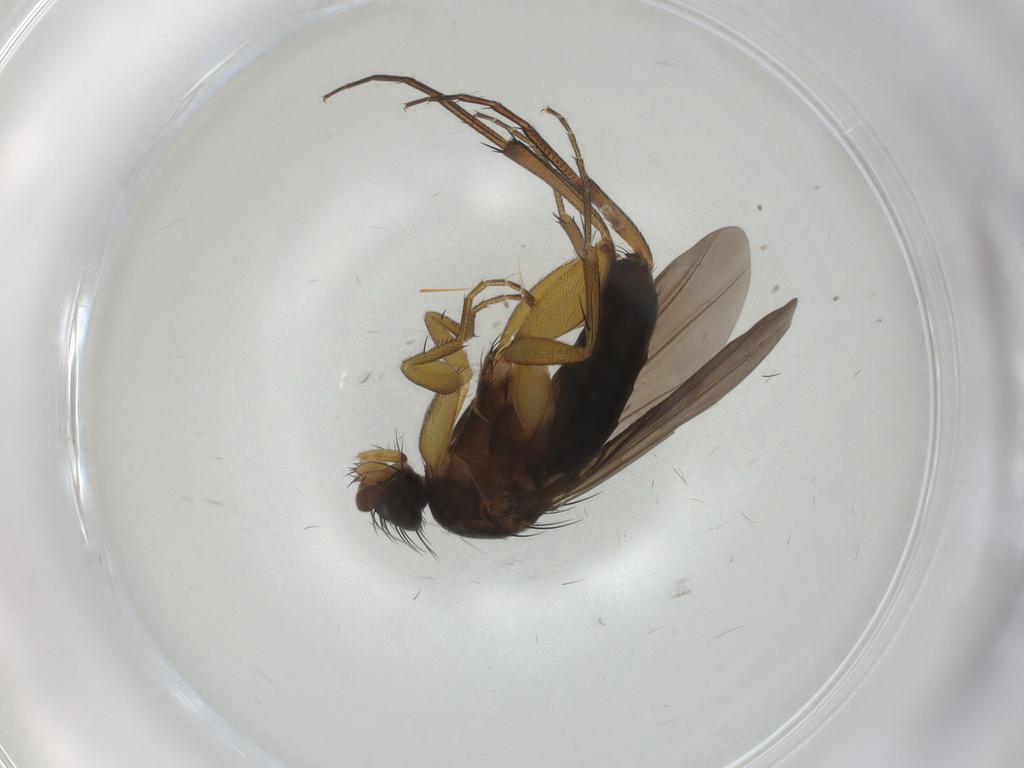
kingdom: Animalia
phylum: Arthropoda
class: Insecta
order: Diptera
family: Phoridae
